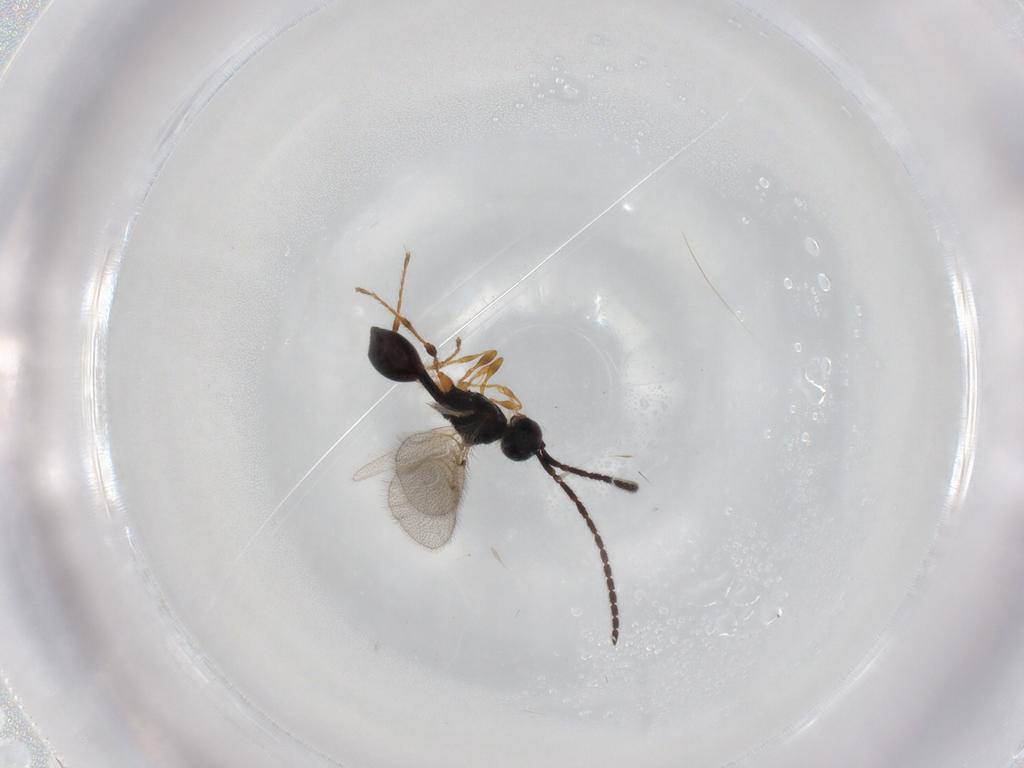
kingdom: Animalia
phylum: Arthropoda
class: Insecta
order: Hymenoptera
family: Diapriidae
